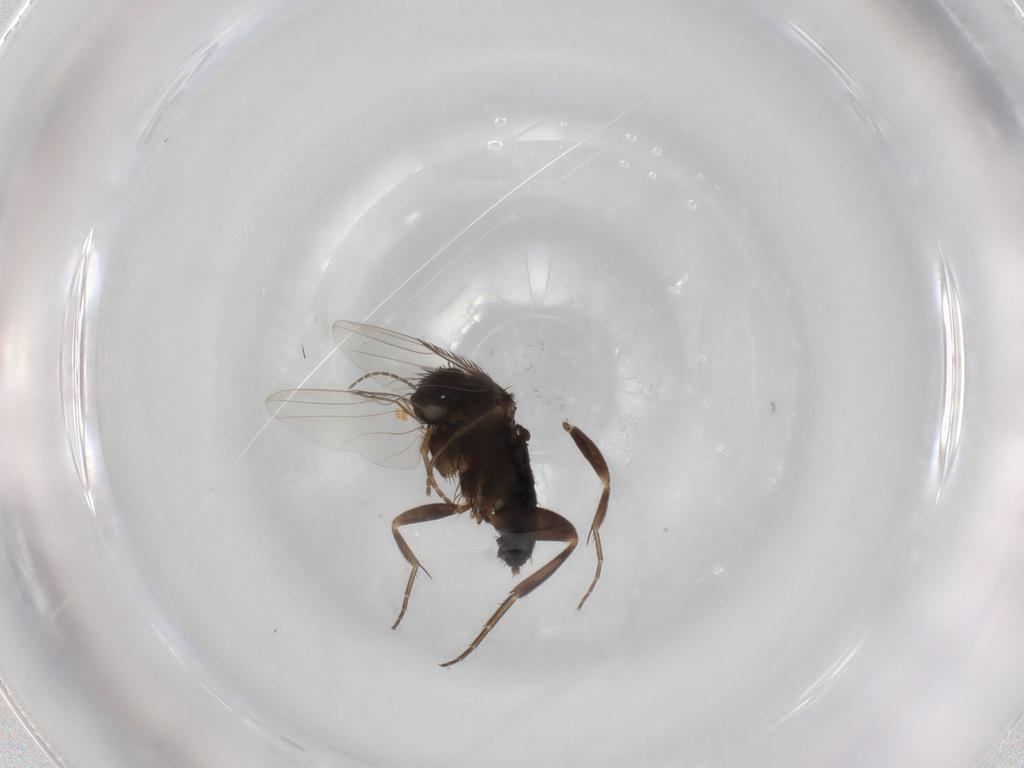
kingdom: Animalia
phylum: Arthropoda
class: Insecta
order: Diptera
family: Phoridae
